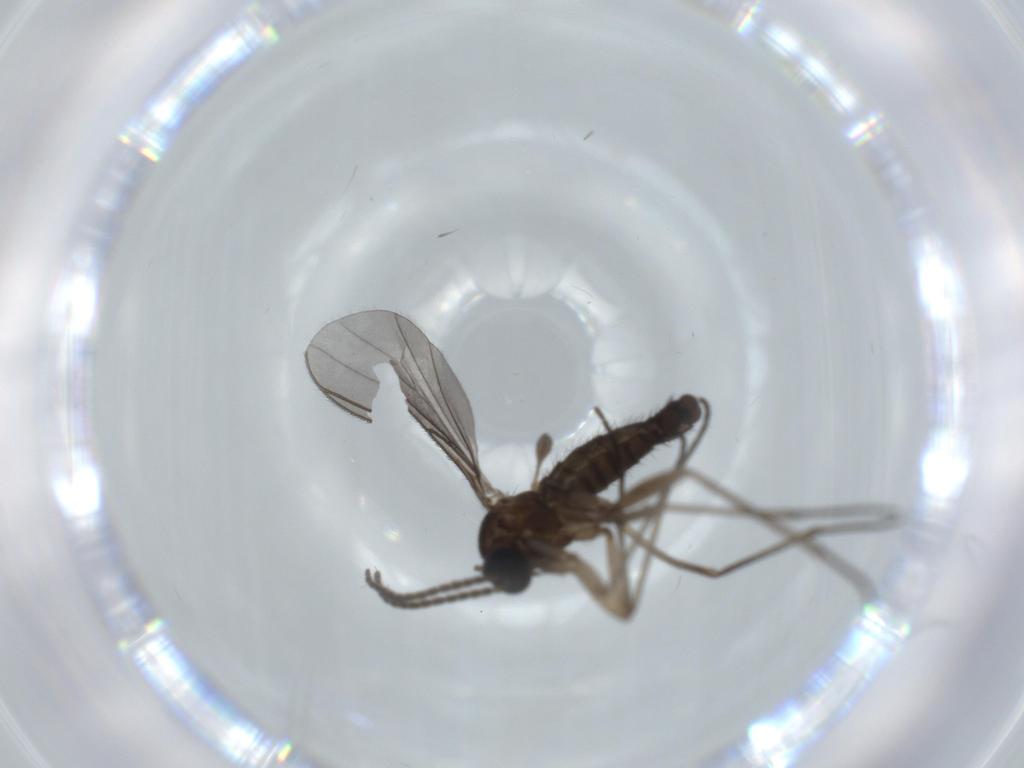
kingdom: Animalia
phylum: Arthropoda
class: Insecta
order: Diptera
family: Sciaridae
